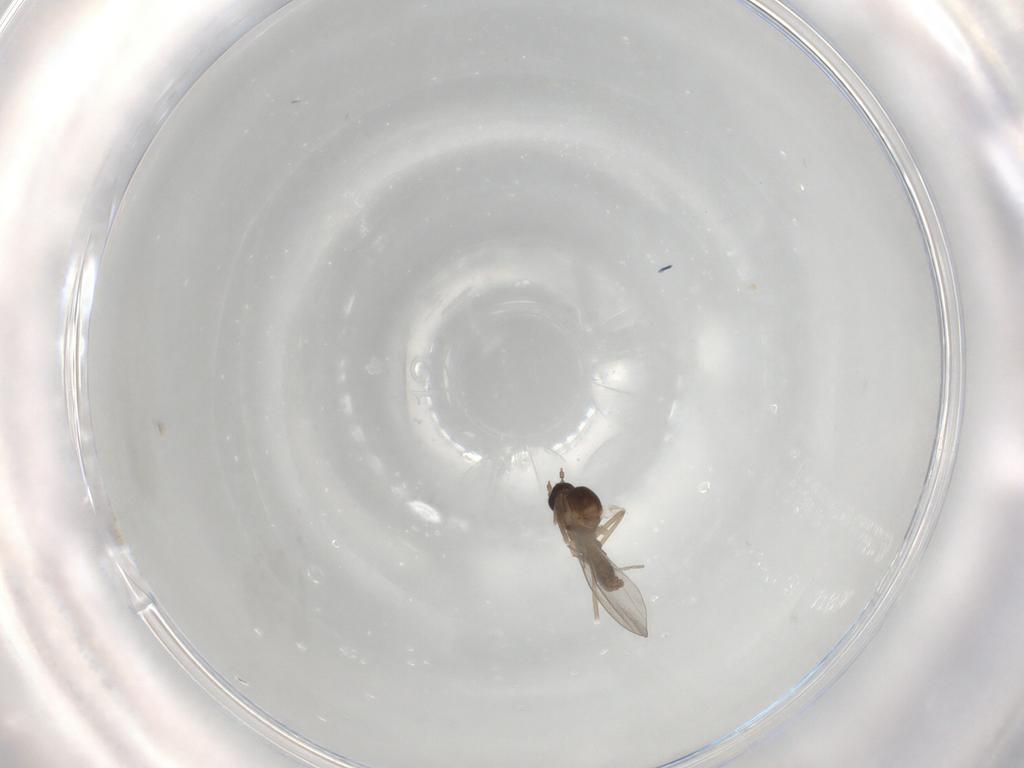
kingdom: Animalia
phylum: Arthropoda
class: Insecta
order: Diptera
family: Cecidomyiidae
